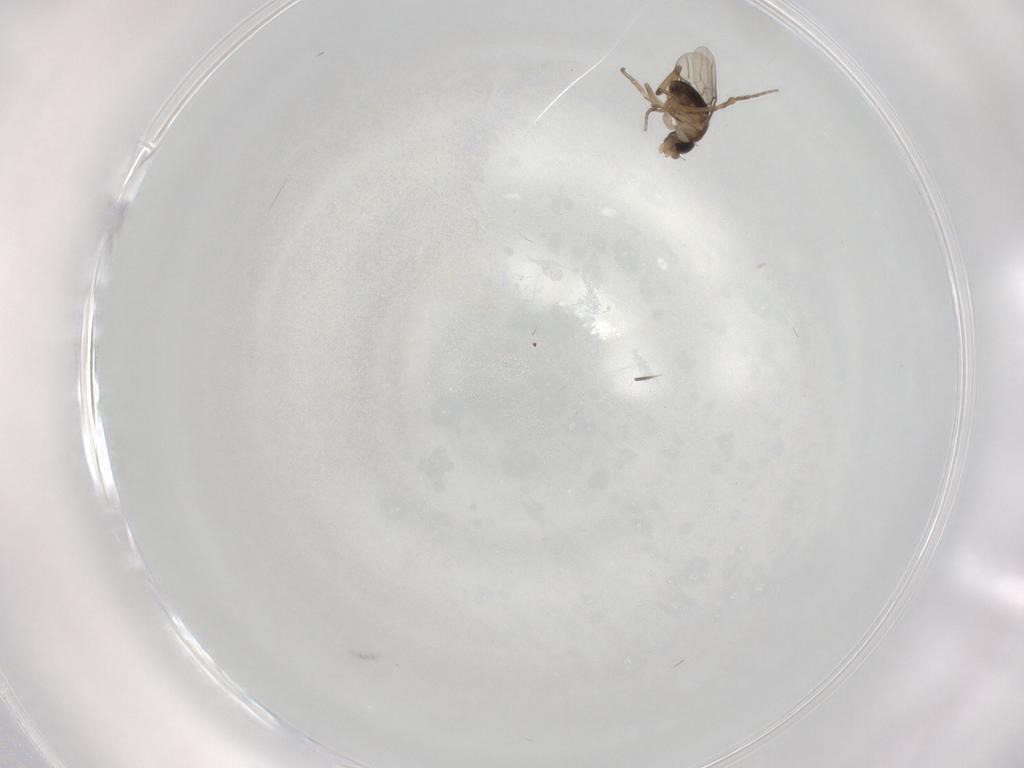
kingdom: Animalia
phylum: Arthropoda
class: Insecta
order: Diptera
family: Phoridae
